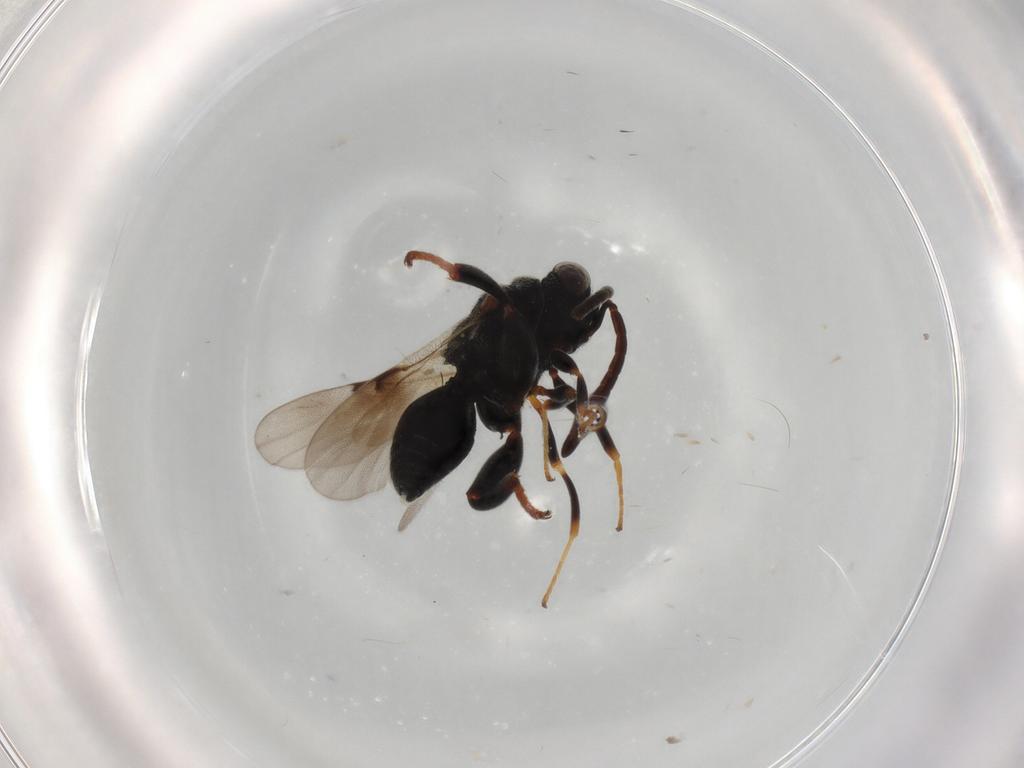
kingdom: Animalia
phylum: Arthropoda
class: Insecta
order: Hymenoptera
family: Chalcididae
